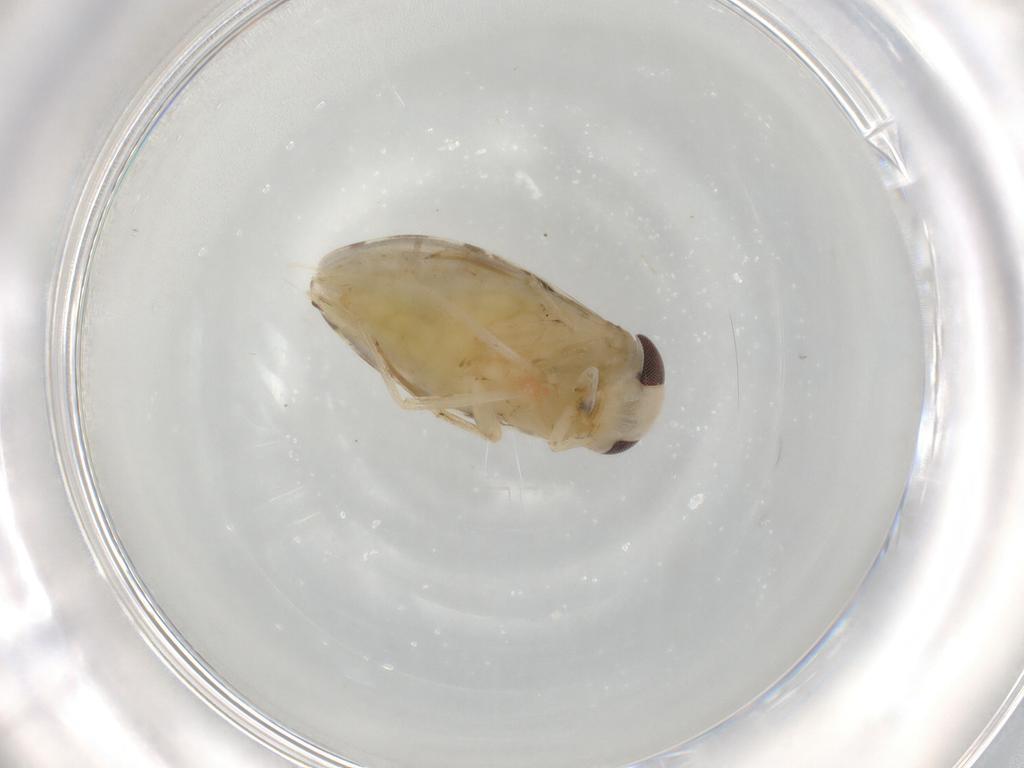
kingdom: Animalia
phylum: Arthropoda
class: Insecta
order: Hemiptera
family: Corixidae
